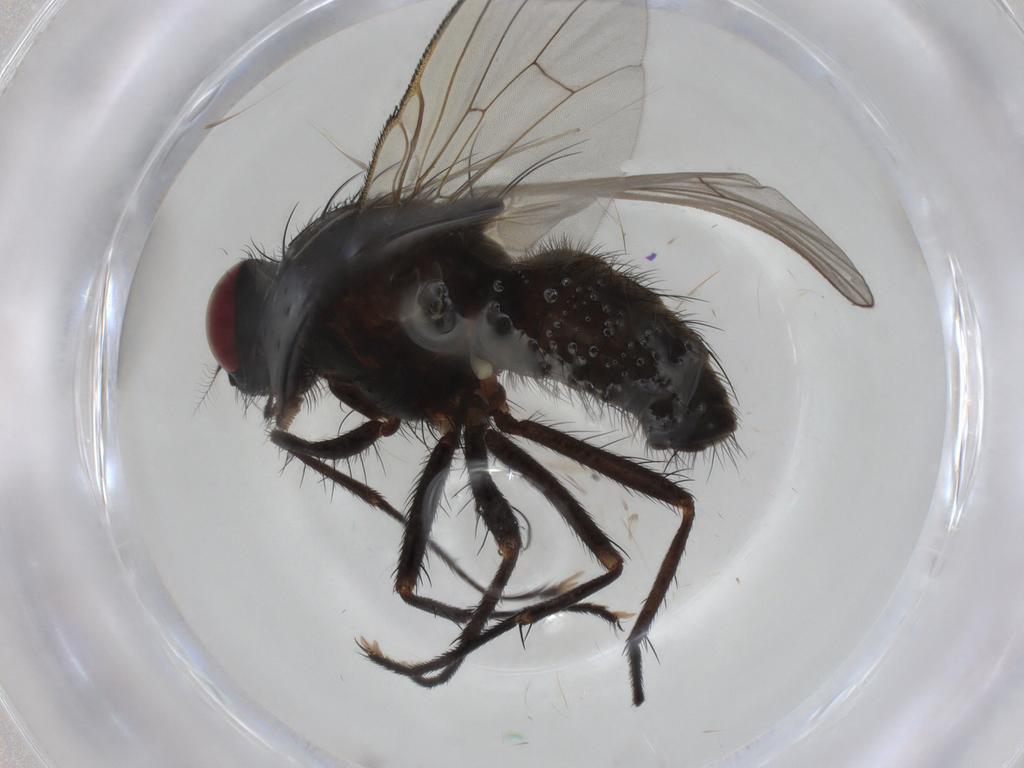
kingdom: Animalia
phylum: Arthropoda
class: Insecta
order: Diptera
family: Muscidae
